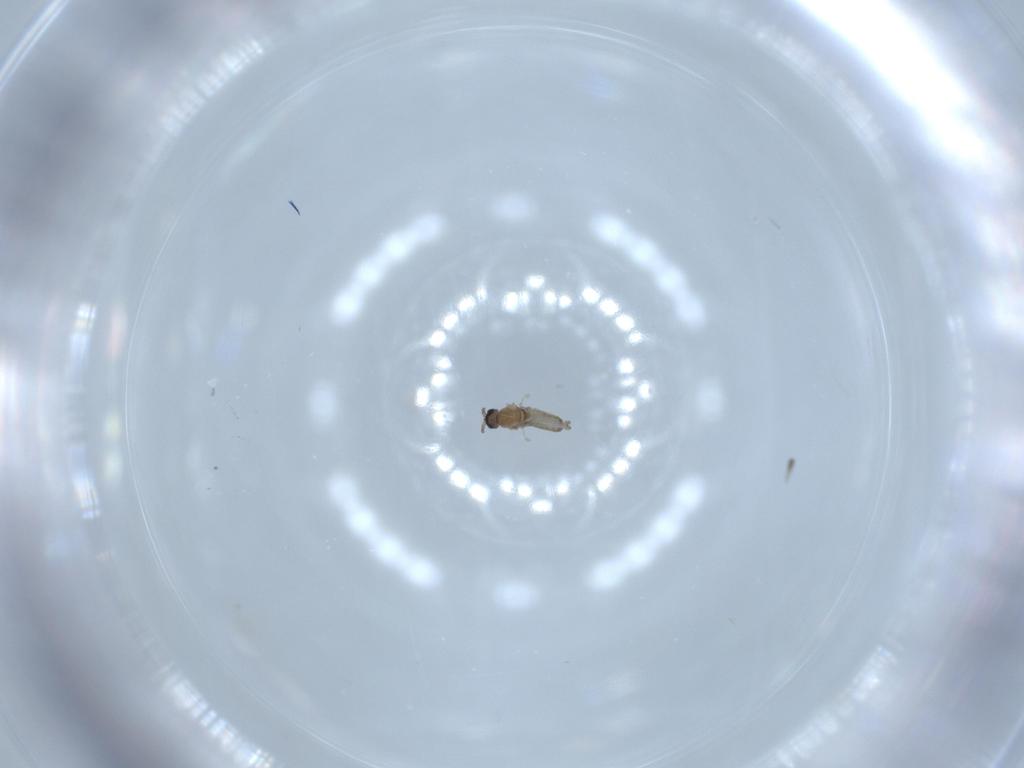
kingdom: Animalia
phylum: Arthropoda
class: Insecta
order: Diptera
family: Cecidomyiidae
